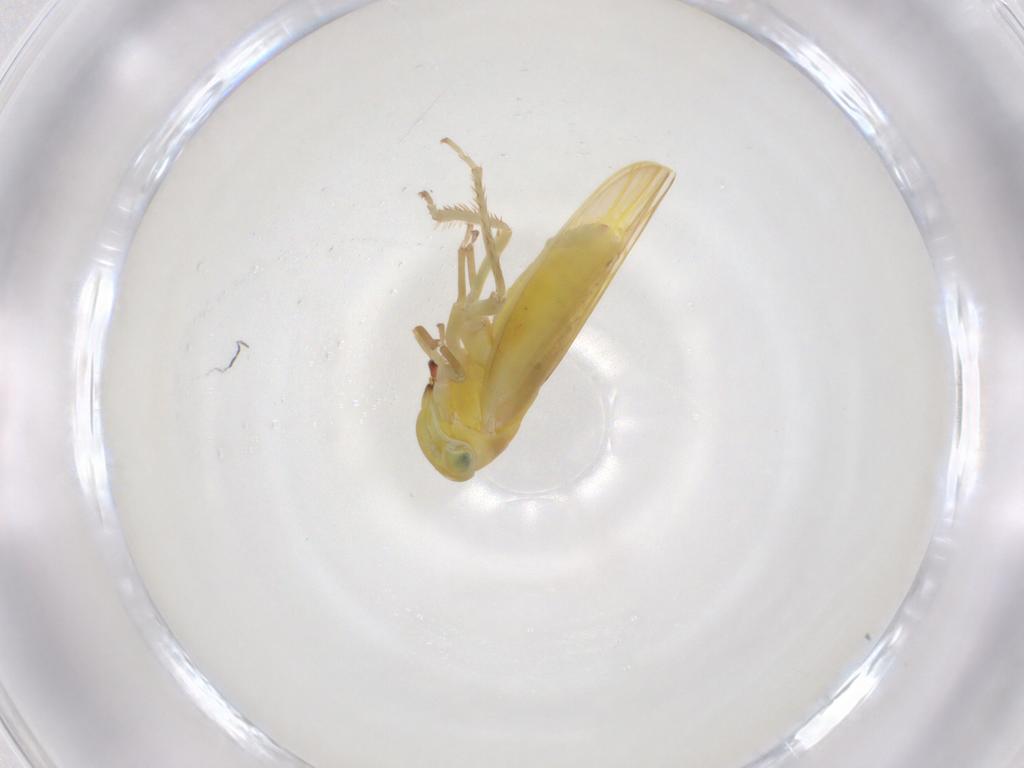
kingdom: Animalia
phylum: Arthropoda
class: Insecta
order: Hemiptera
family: Cicadellidae
